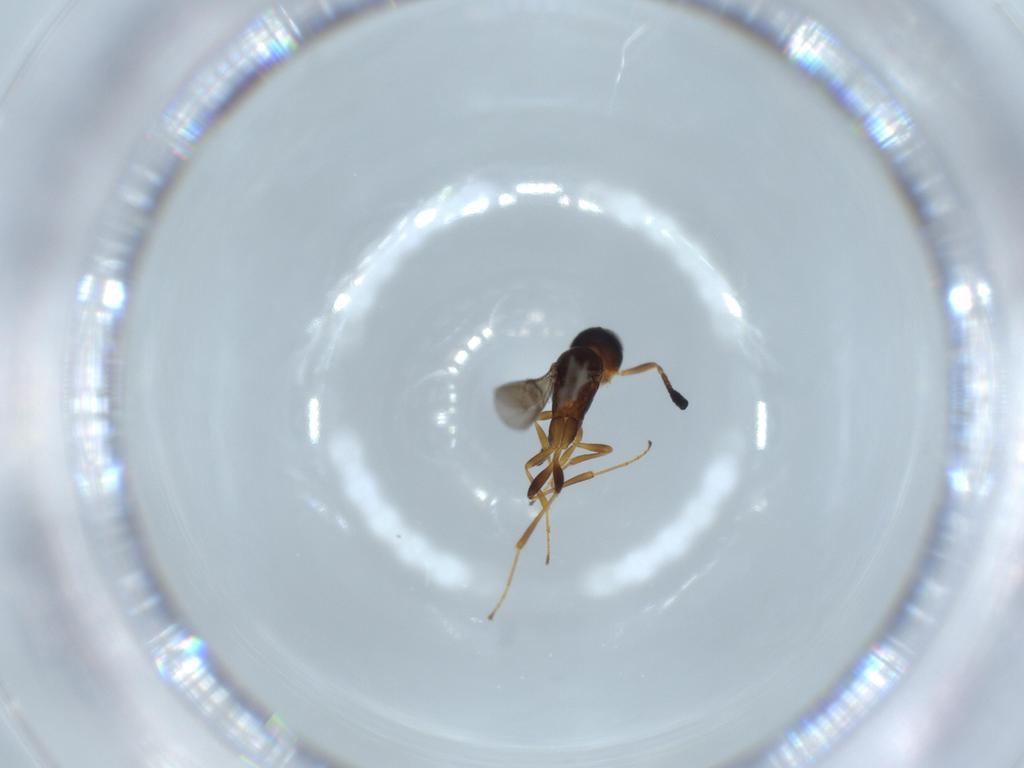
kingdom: Animalia
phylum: Arthropoda
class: Insecta
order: Hymenoptera
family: Scelionidae
